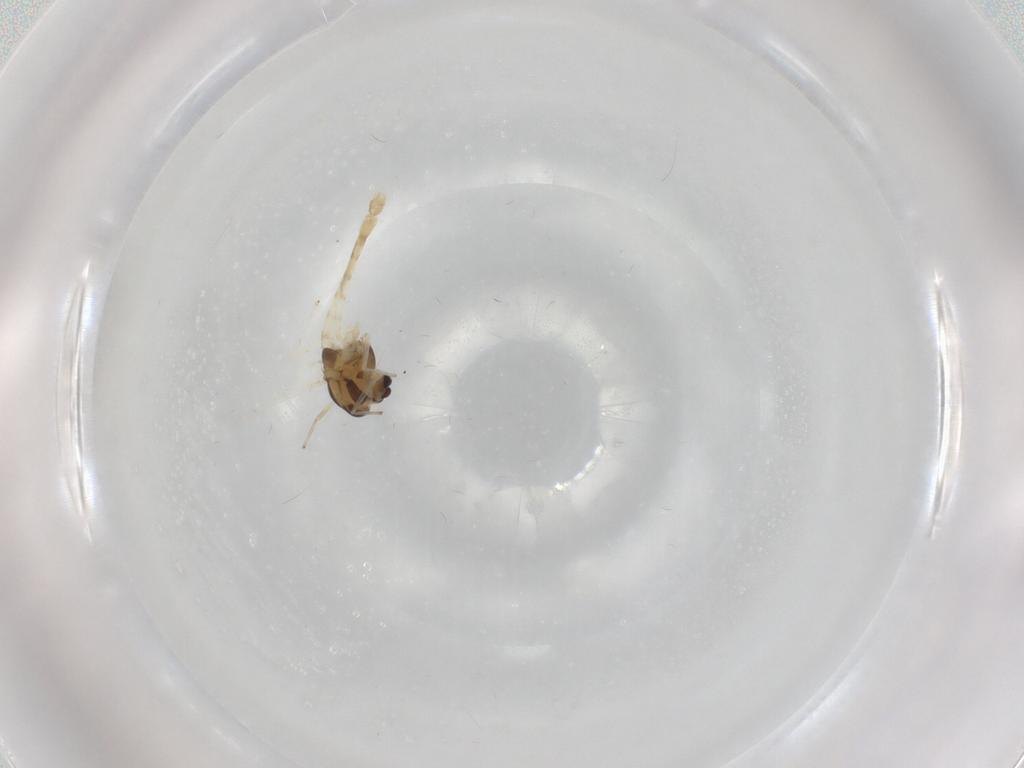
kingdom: Animalia
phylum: Arthropoda
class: Insecta
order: Diptera
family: Chironomidae
